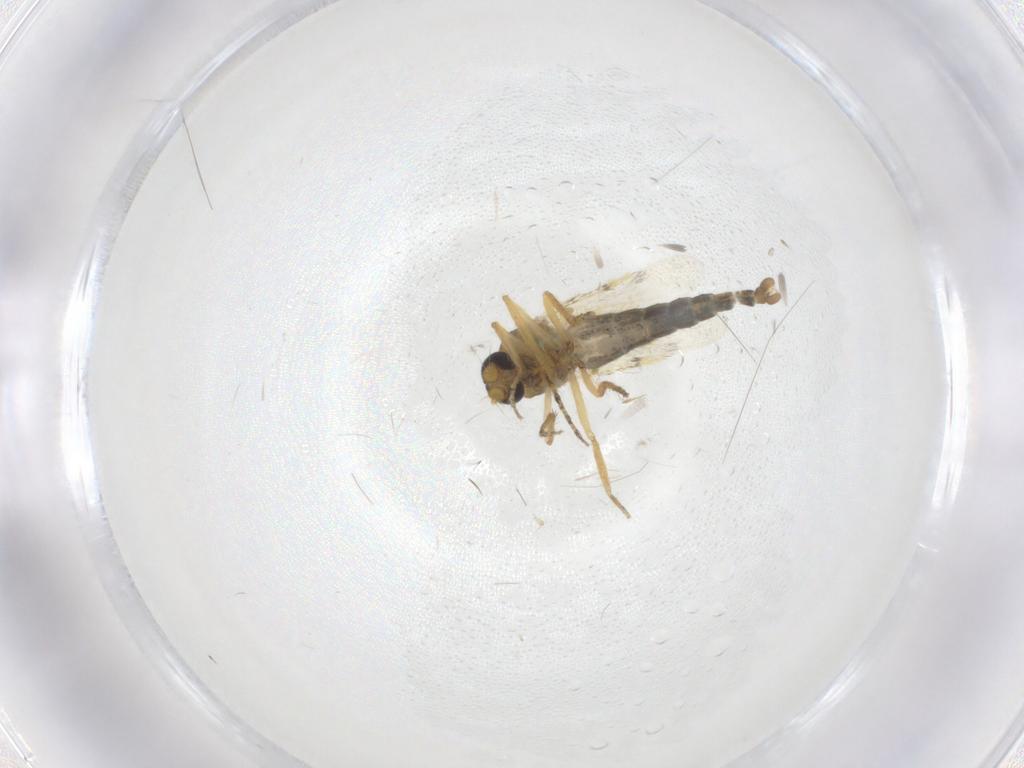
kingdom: Animalia
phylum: Arthropoda
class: Insecta
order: Diptera
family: Ceratopogonidae
